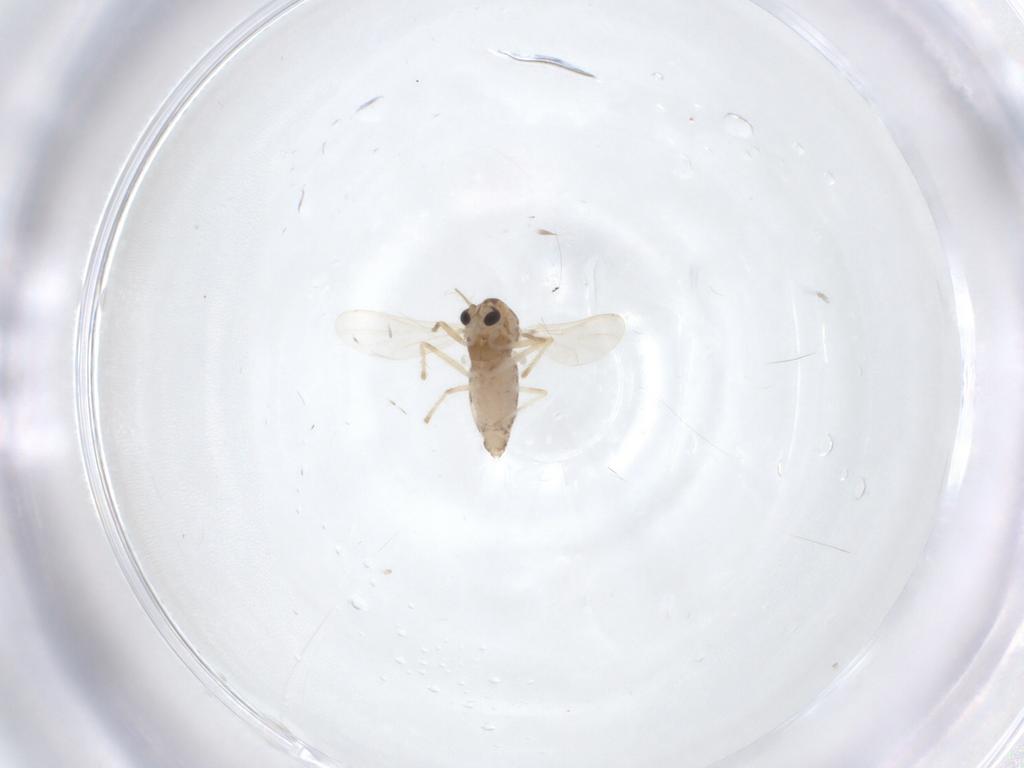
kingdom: Animalia
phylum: Arthropoda
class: Insecta
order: Diptera
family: Chironomidae
